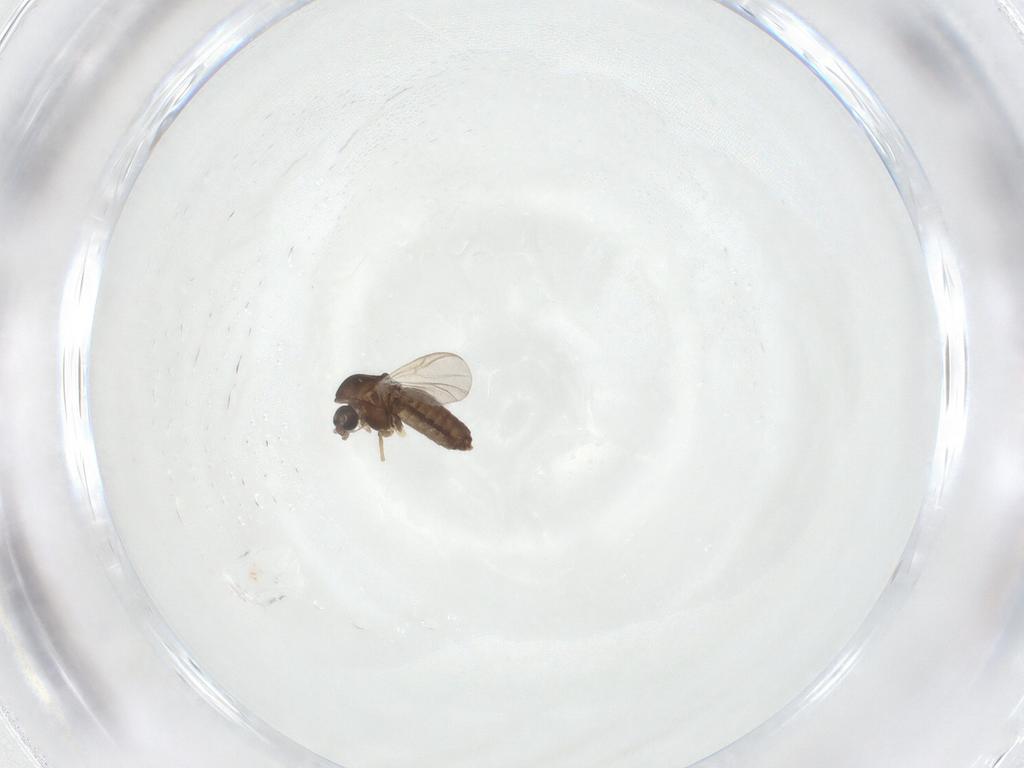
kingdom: Animalia
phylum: Arthropoda
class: Insecta
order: Diptera
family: Chironomidae
